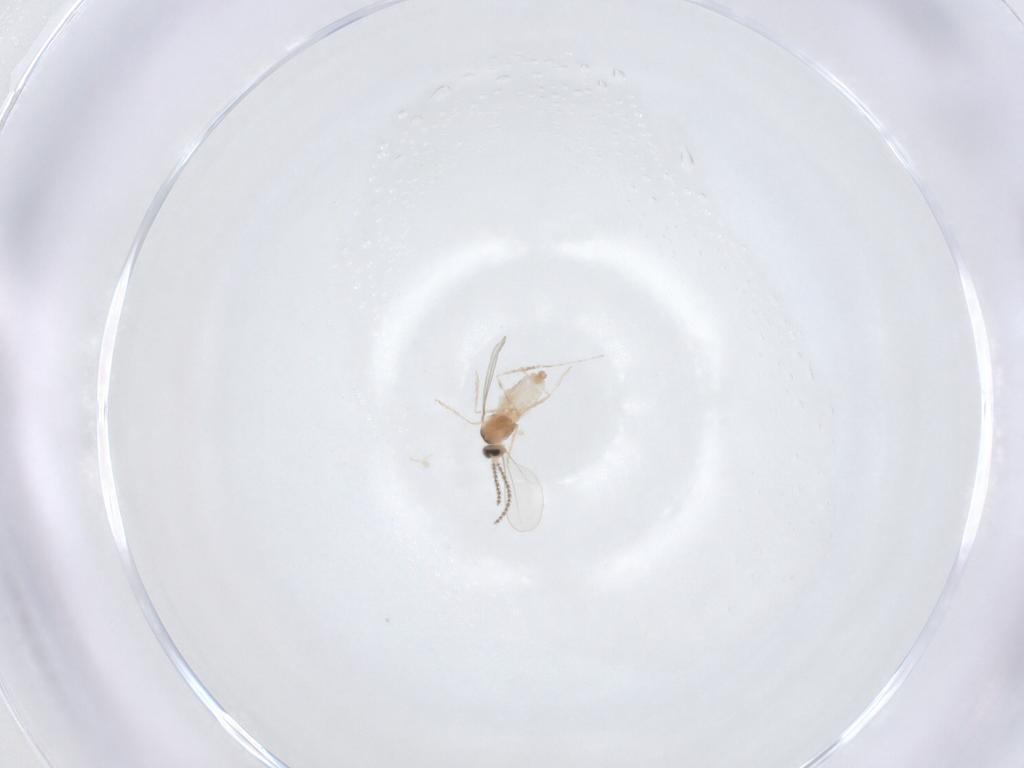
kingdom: Animalia
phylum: Arthropoda
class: Insecta
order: Diptera
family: Cecidomyiidae
